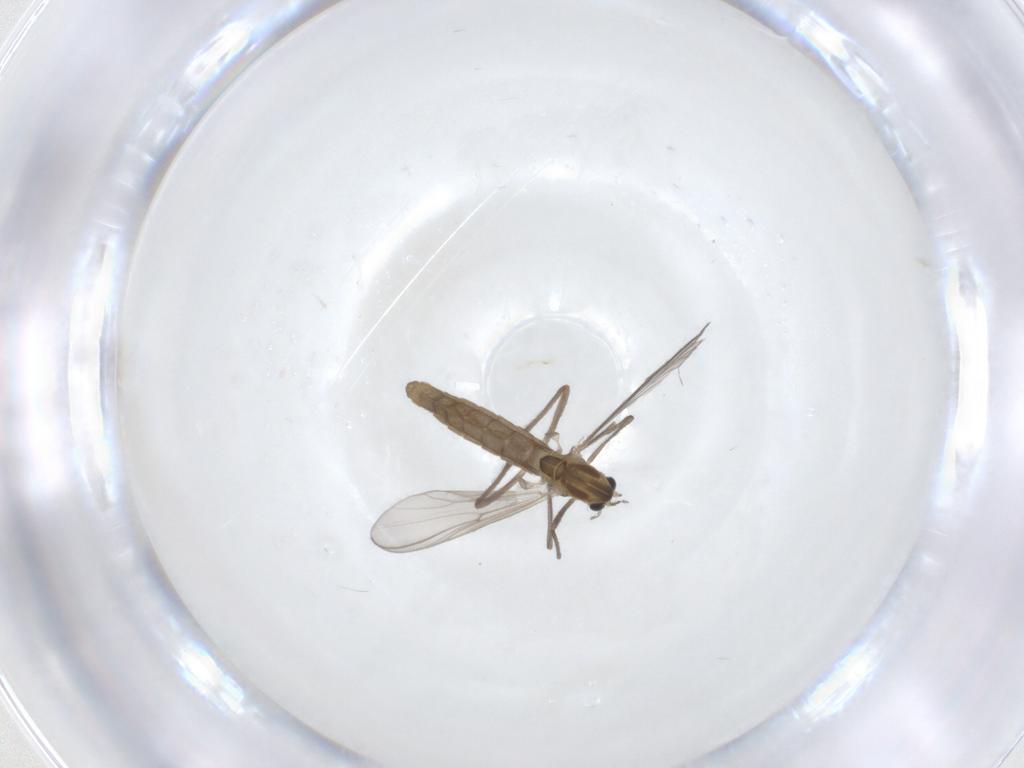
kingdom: Animalia
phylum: Arthropoda
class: Insecta
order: Diptera
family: Chironomidae
